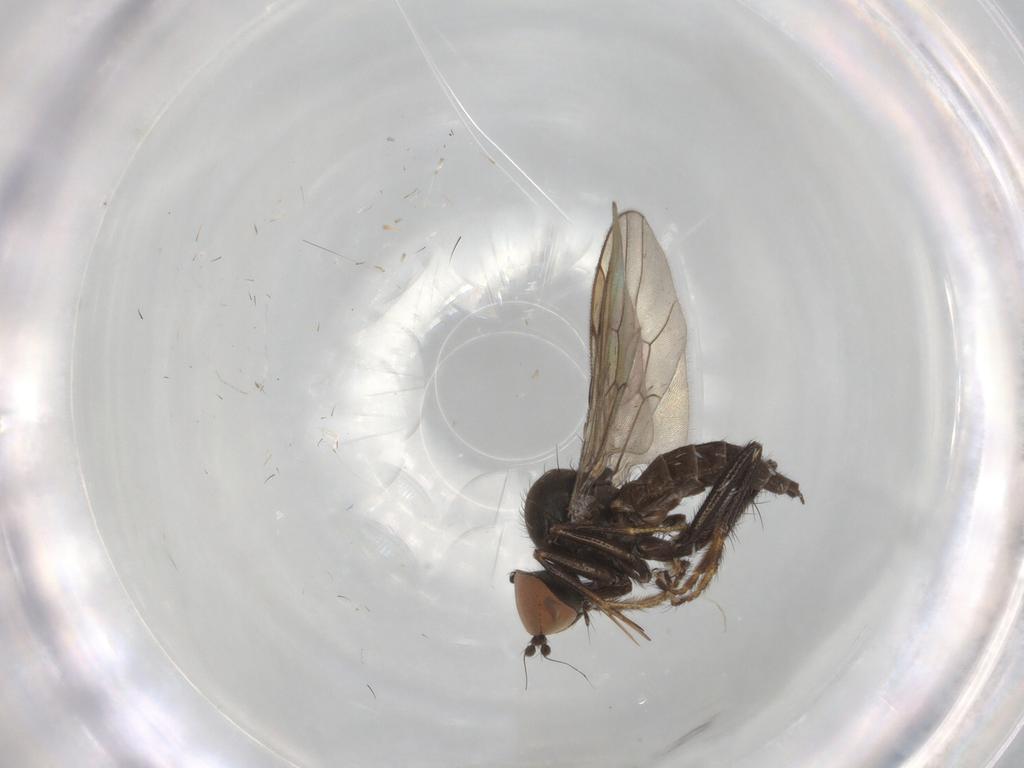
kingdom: Animalia
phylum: Arthropoda
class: Insecta
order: Diptera
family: Hybotidae
